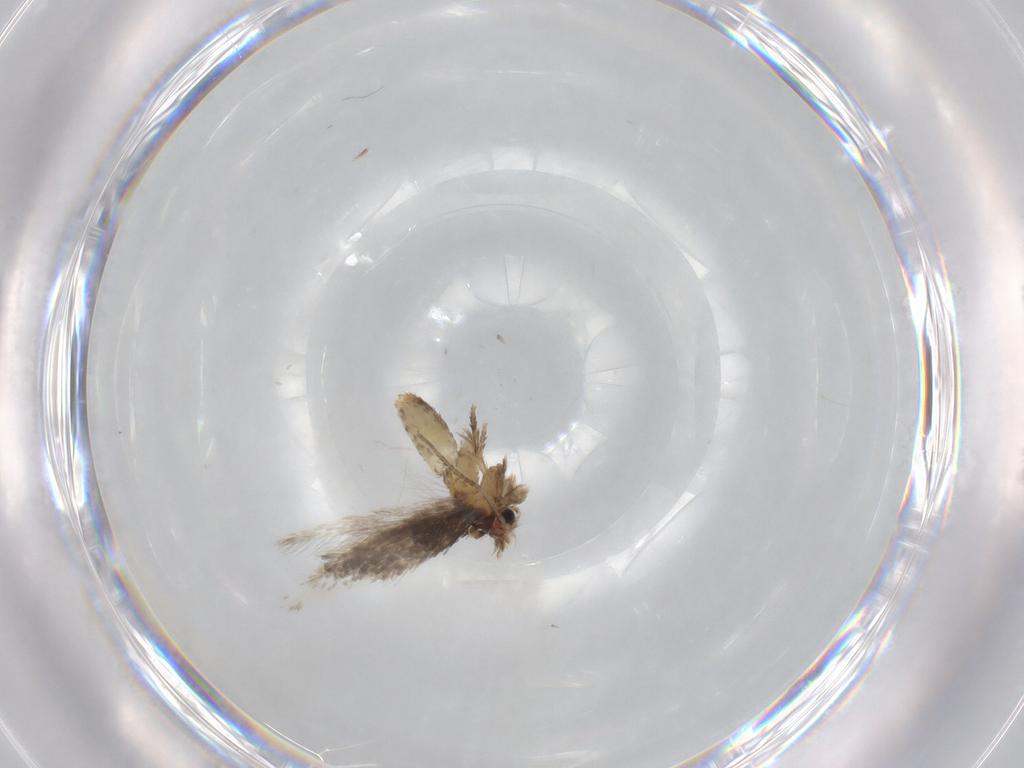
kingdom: Animalia
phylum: Arthropoda
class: Insecta
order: Lepidoptera
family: Nepticulidae
